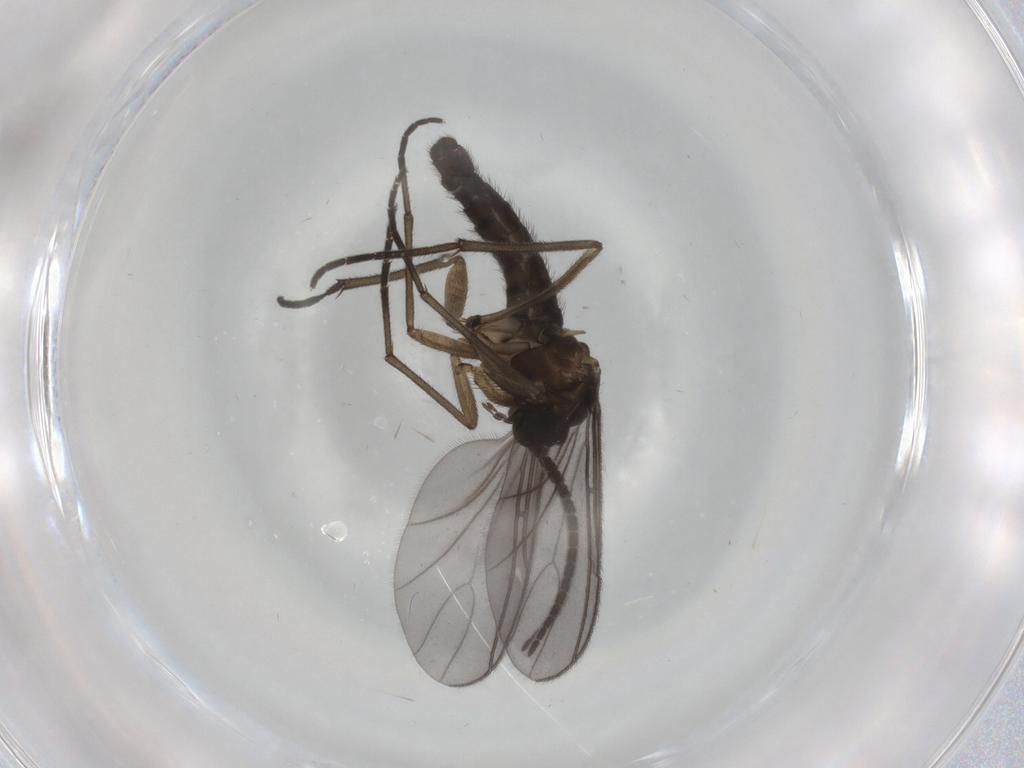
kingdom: Animalia
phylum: Arthropoda
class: Insecta
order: Diptera
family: Sciaridae
